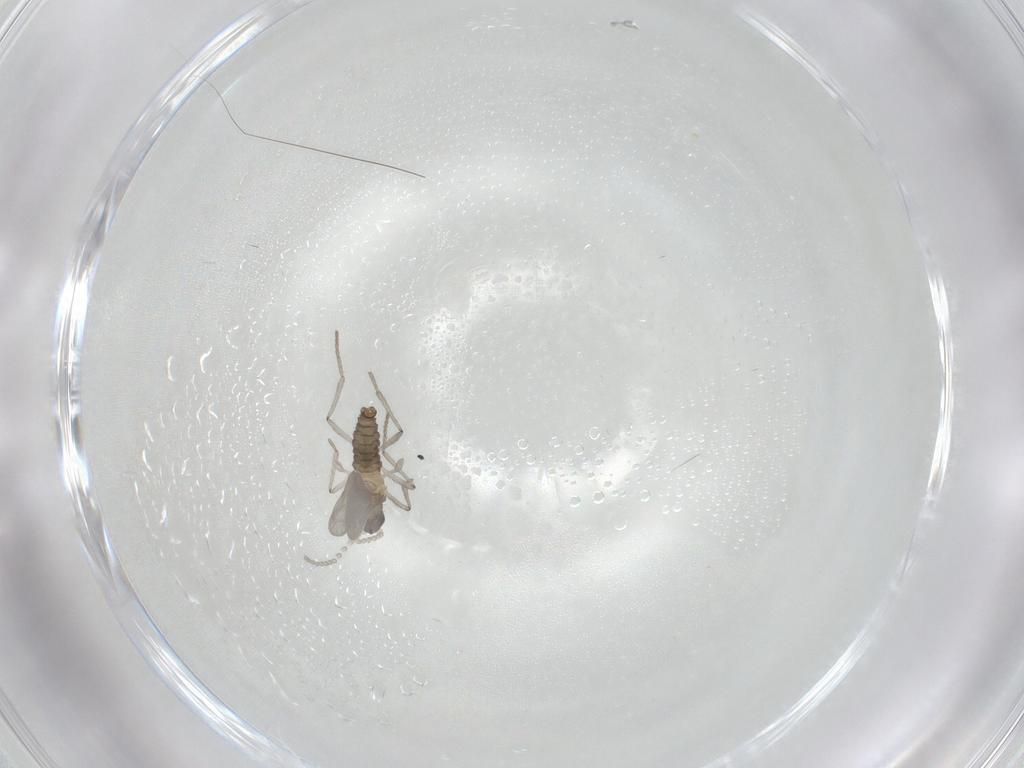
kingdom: Animalia
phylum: Arthropoda
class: Insecta
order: Diptera
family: Cecidomyiidae
